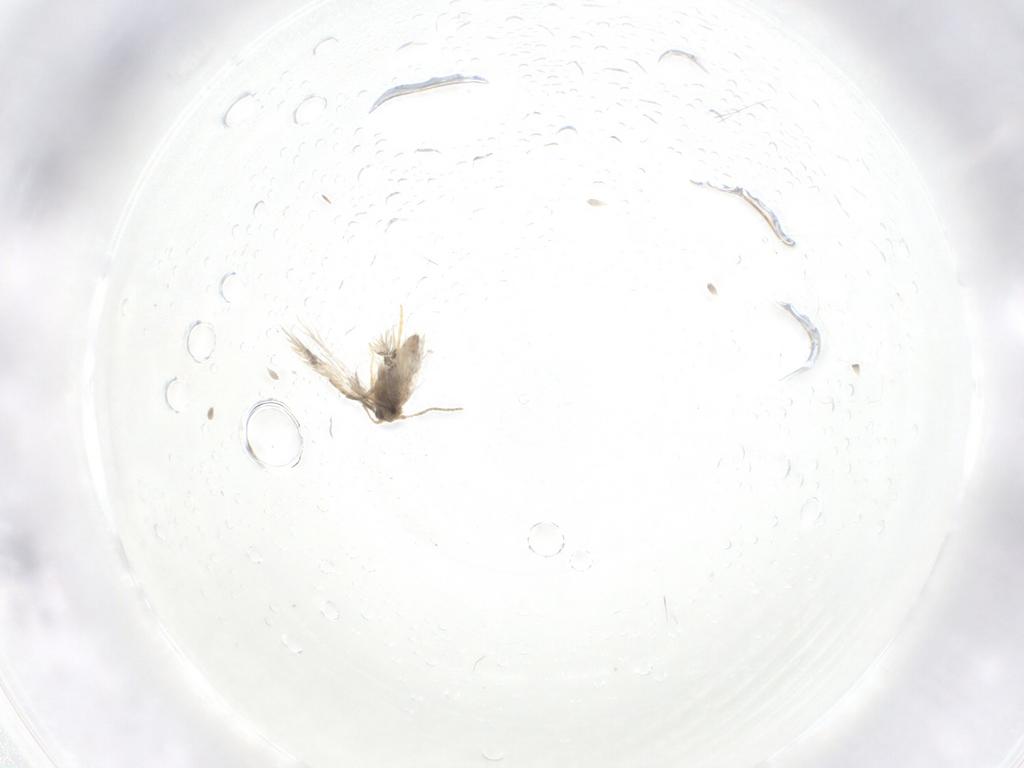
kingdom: Animalia
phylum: Arthropoda
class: Insecta
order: Lepidoptera
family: Nepticulidae
